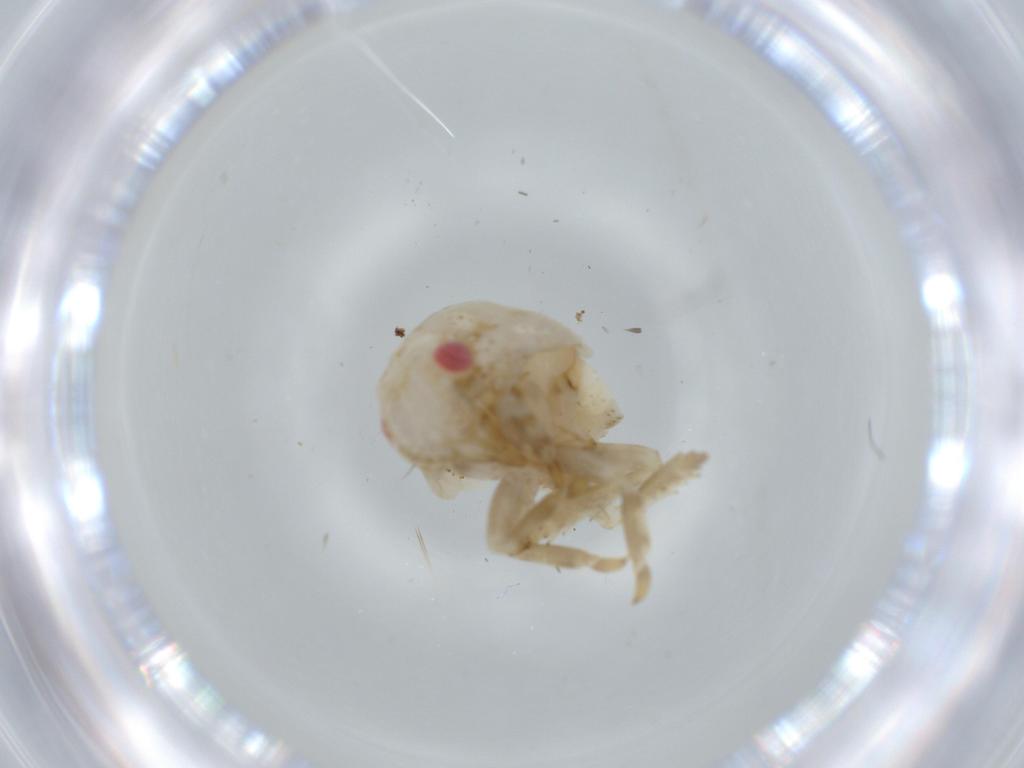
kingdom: Animalia
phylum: Arthropoda
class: Insecta
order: Hemiptera
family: Acanaloniidae
